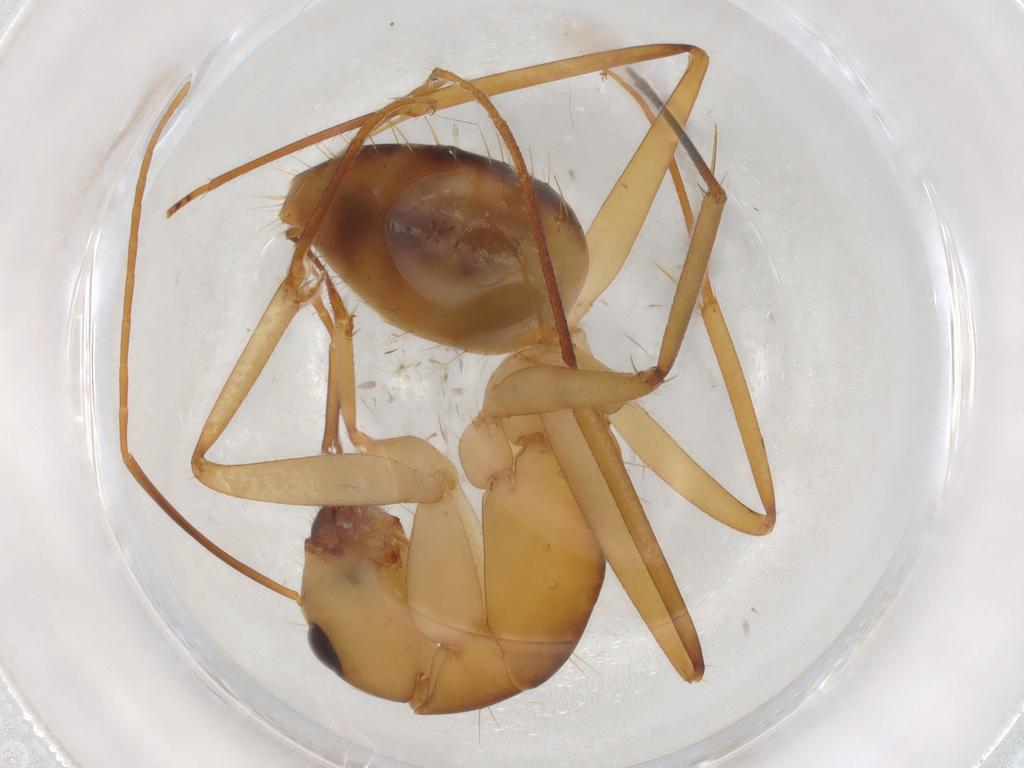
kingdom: Animalia
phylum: Arthropoda
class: Insecta
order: Hymenoptera
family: Formicidae
